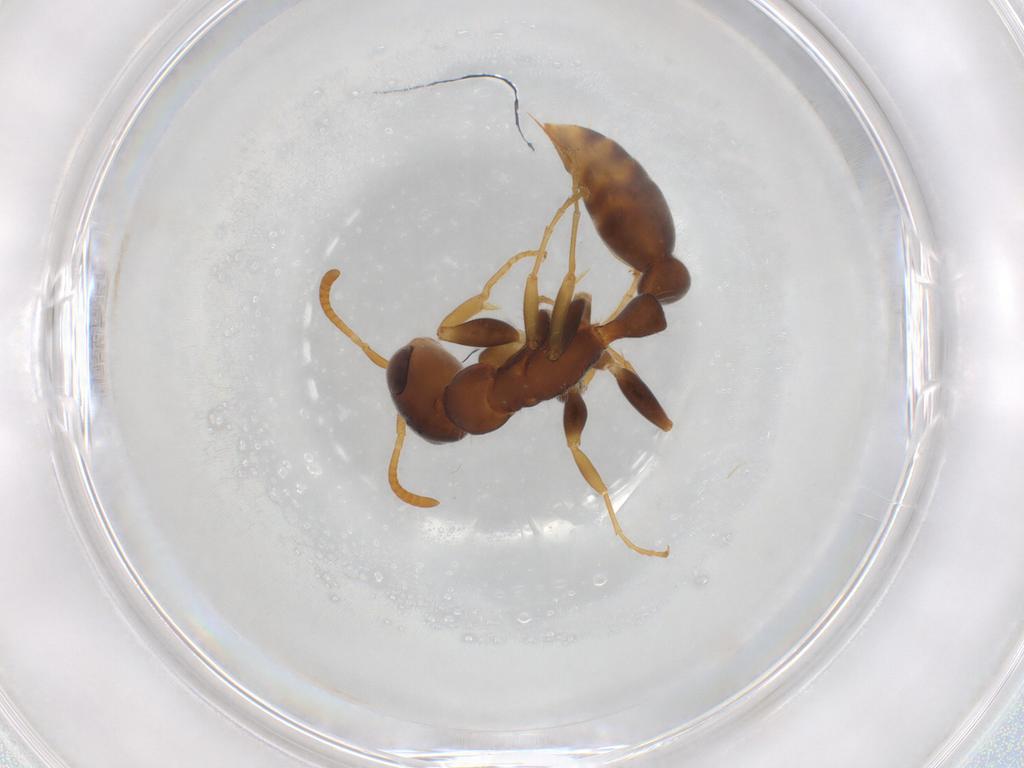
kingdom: Animalia
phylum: Arthropoda
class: Insecta
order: Hymenoptera
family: Formicidae
